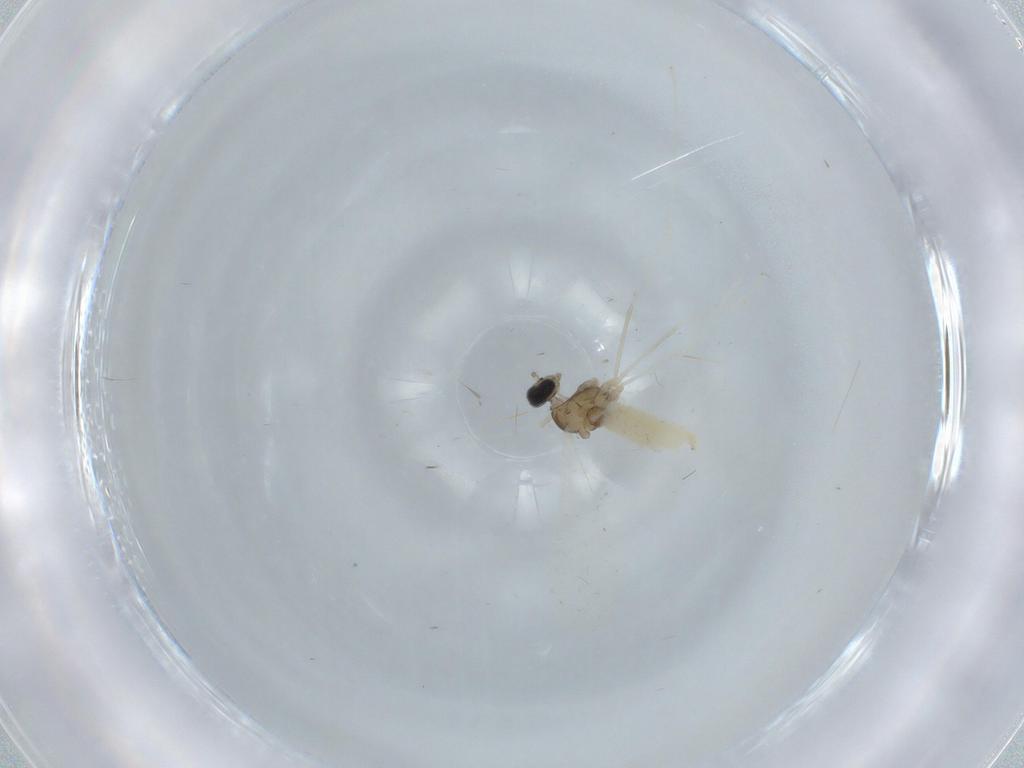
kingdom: Animalia
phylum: Arthropoda
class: Insecta
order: Diptera
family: Cecidomyiidae
